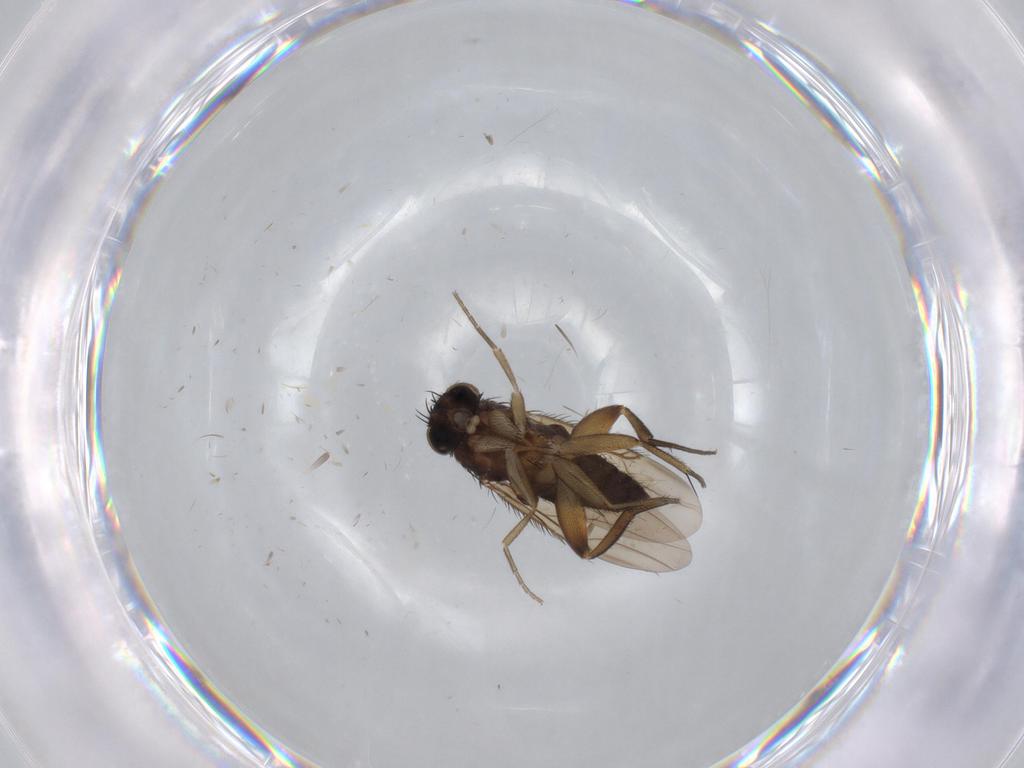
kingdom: Animalia
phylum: Arthropoda
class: Insecta
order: Diptera
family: Phoridae
